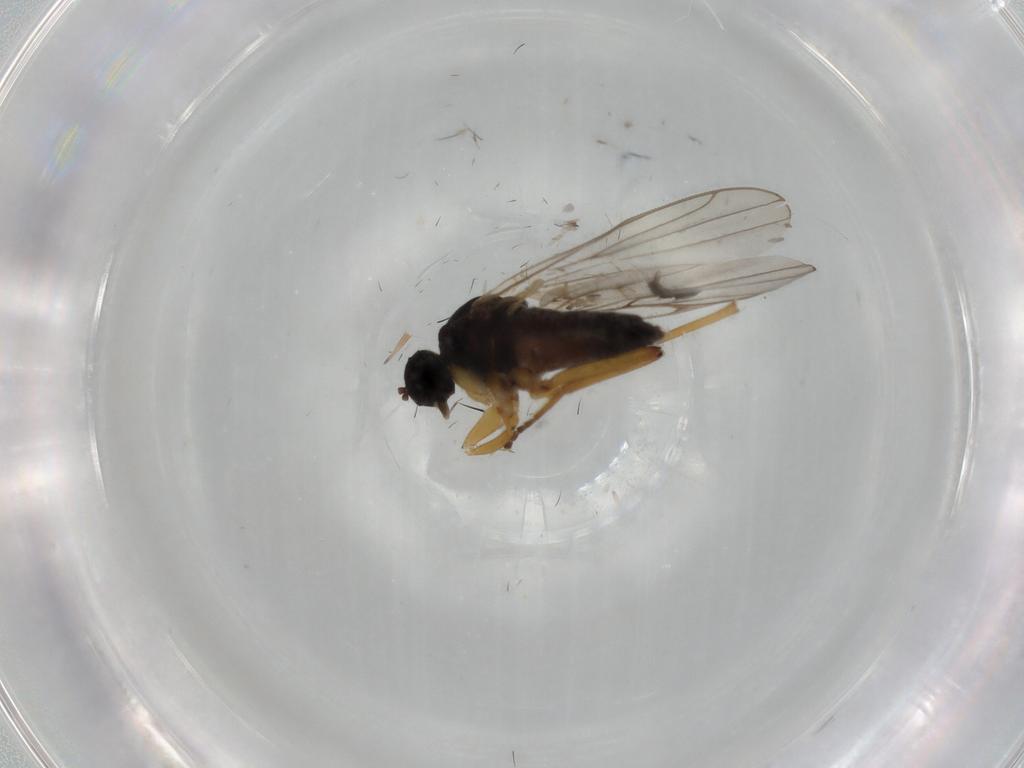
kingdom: Animalia
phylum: Arthropoda
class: Insecta
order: Diptera
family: Hybotidae
